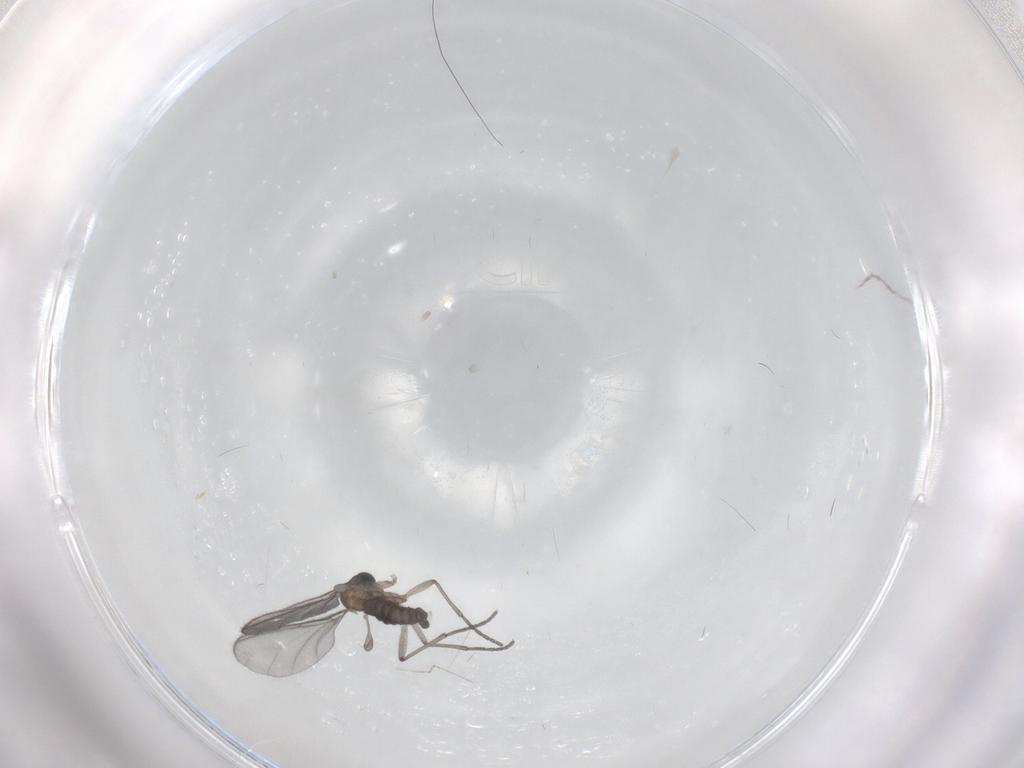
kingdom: Animalia
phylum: Arthropoda
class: Insecta
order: Diptera
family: Sciaridae
